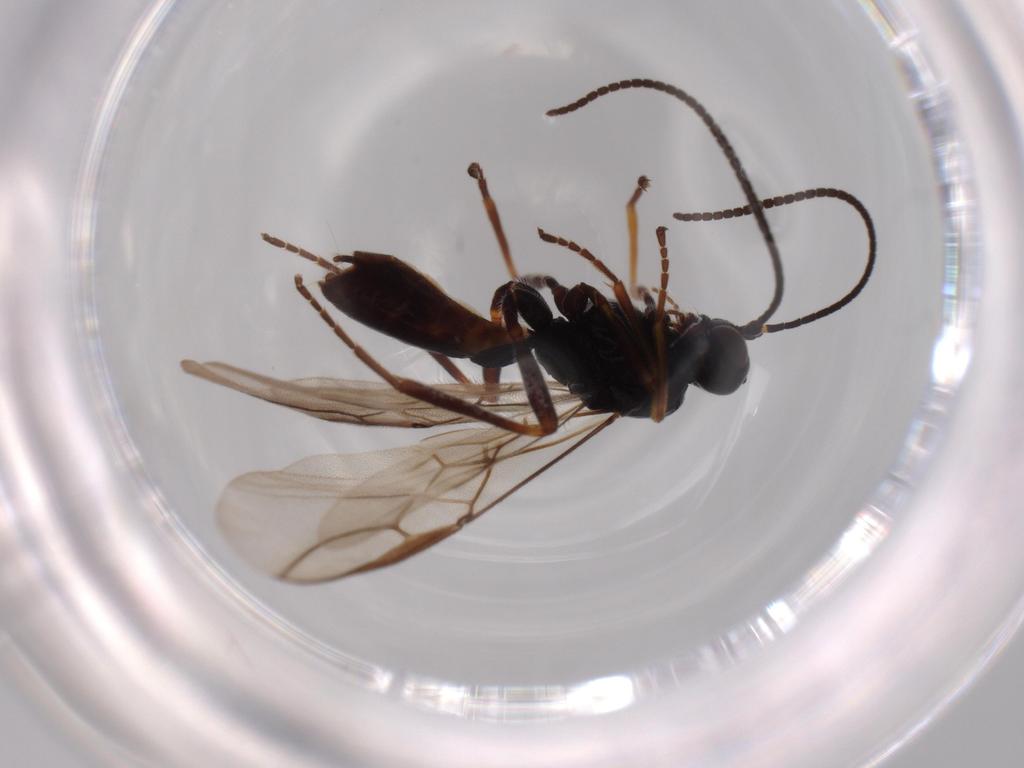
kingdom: Animalia
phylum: Arthropoda
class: Insecta
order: Hymenoptera
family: Braconidae
